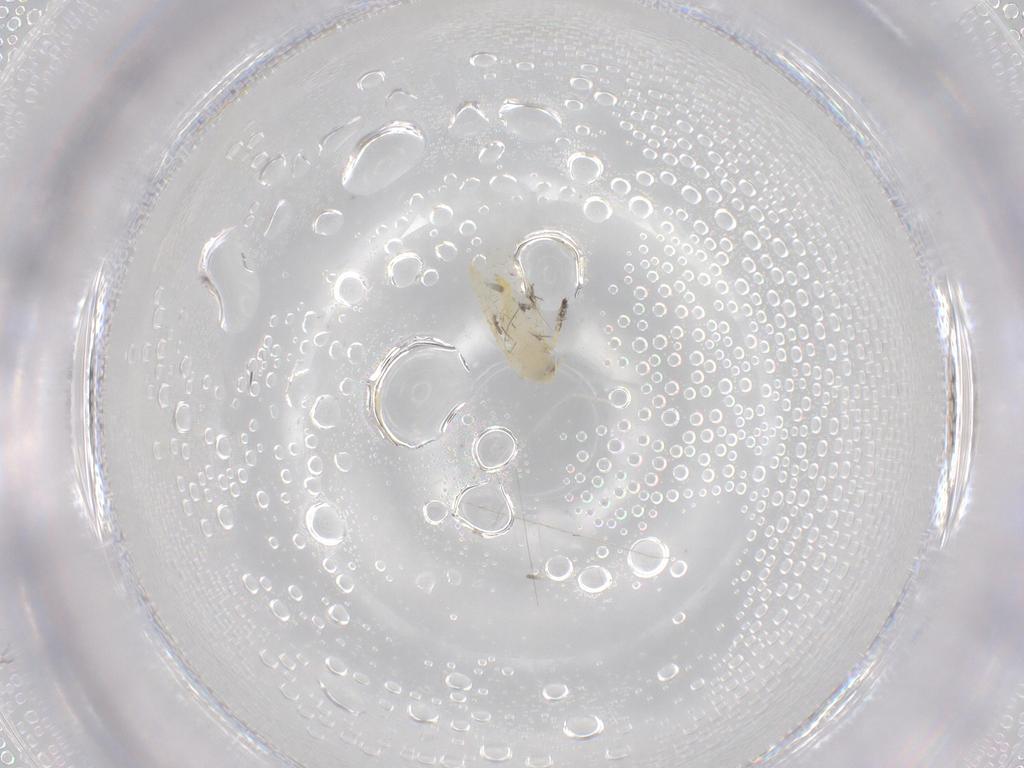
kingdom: Animalia
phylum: Arthropoda
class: Insecta
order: Hemiptera
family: Aleyrodidae
